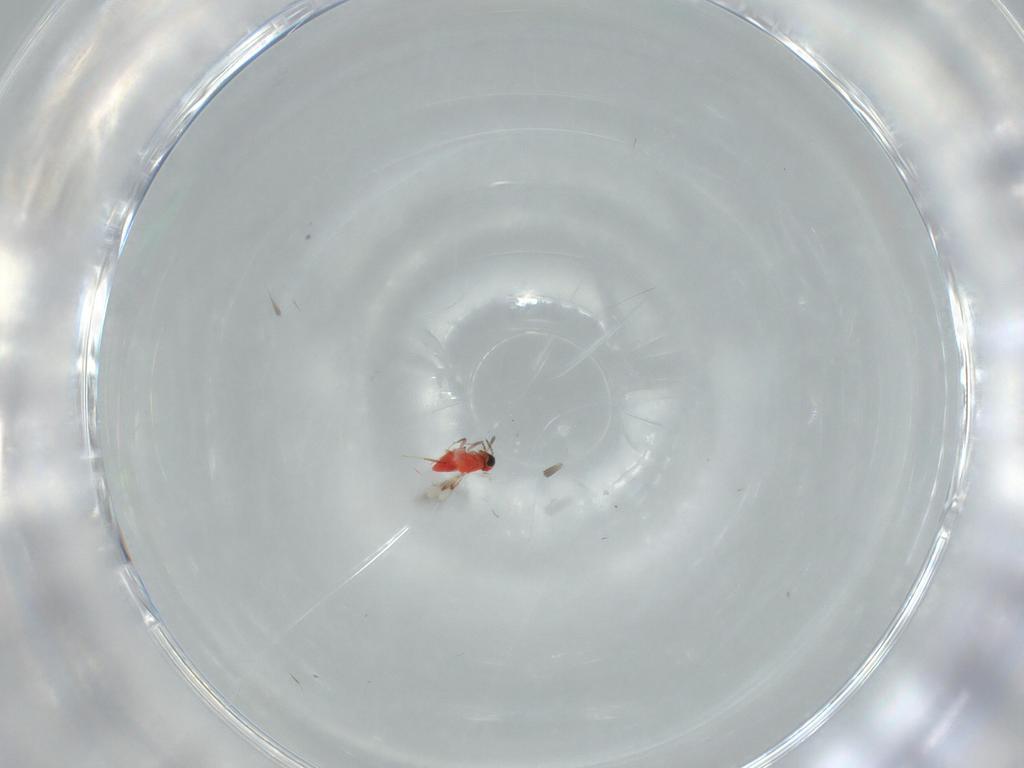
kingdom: Animalia
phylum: Arthropoda
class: Insecta
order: Hymenoptera
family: Trichogrammatidae
